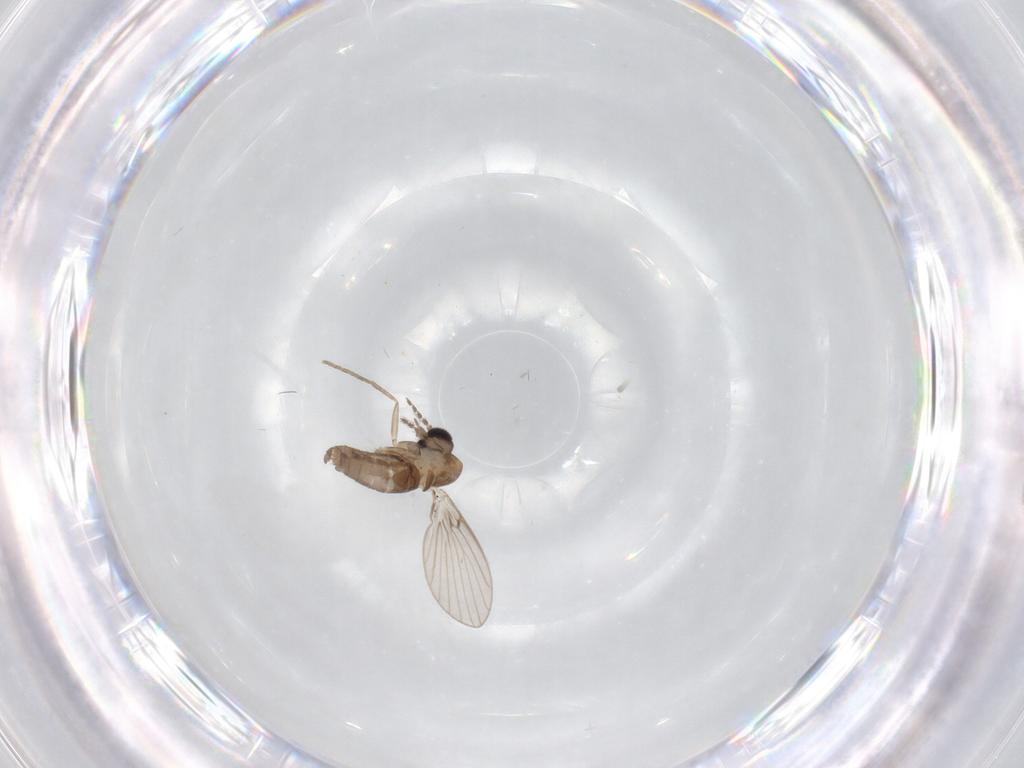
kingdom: Animalia
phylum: Arthropoda
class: Insecta
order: Diptera
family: Psychodidae
